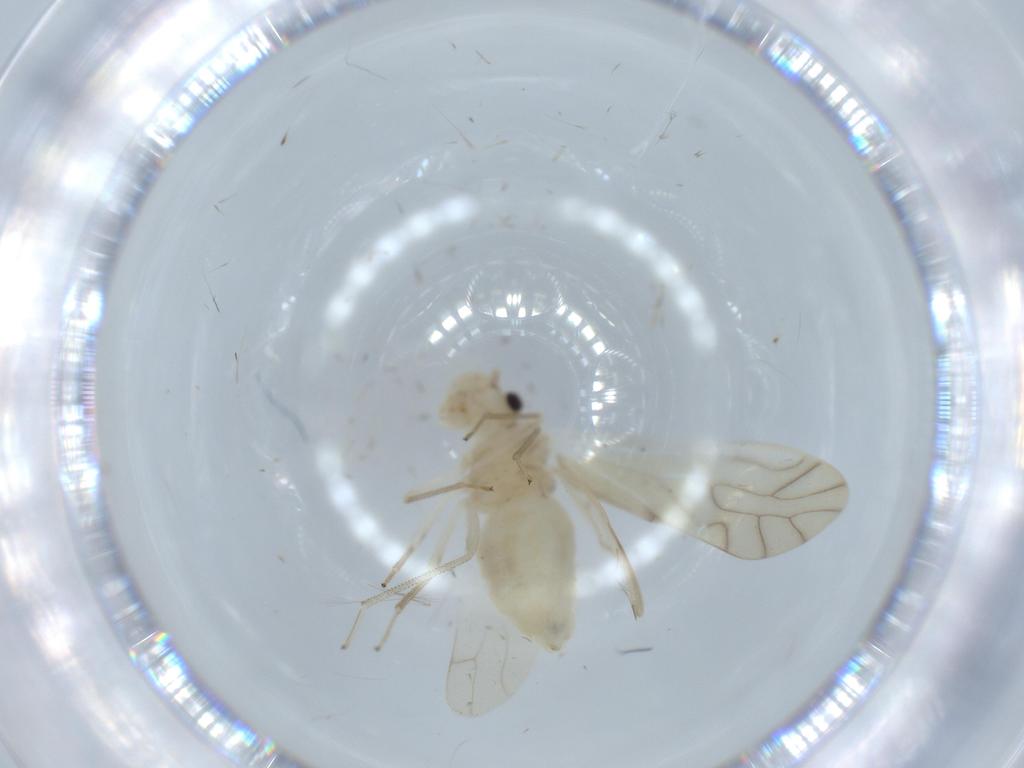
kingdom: Animalia
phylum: Arthropoda
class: Insecta
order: Psocodea
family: Caeciliusidae
